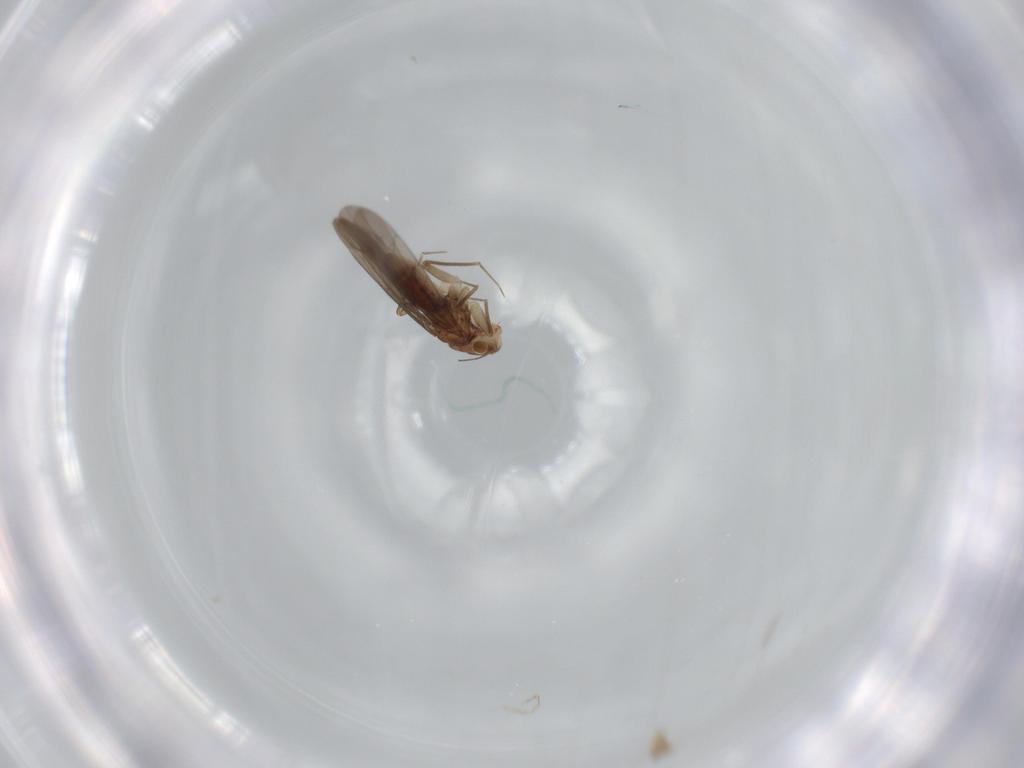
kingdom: Animalia
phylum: Arthropoda
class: Insecta
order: Psocodea
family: Lepidopsocidae
